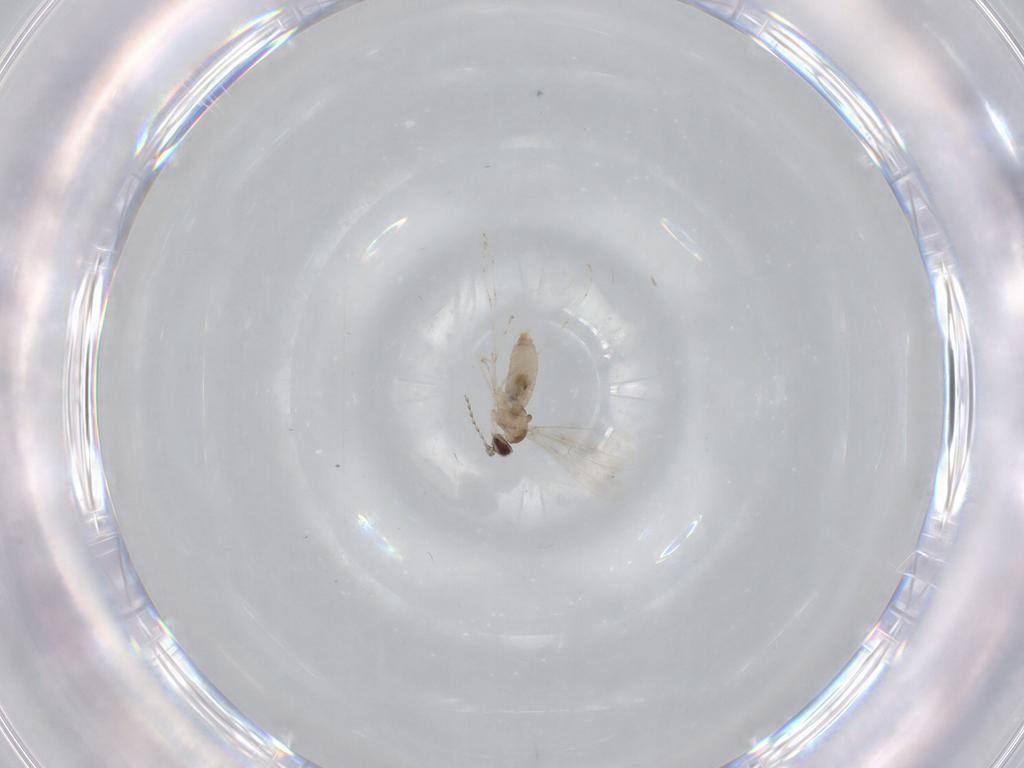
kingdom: Animalia
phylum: Arthropoda
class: Insecta
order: Diptera
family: Cecidomyiidae
